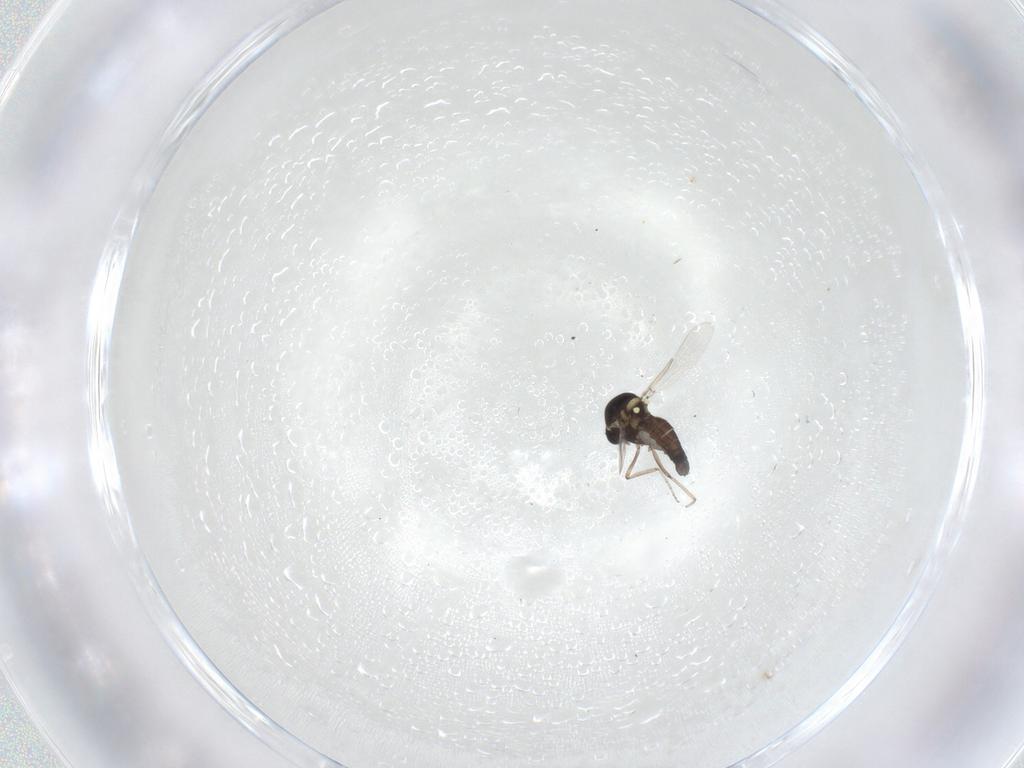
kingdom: Animalia
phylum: Arthropoda
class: Insecta
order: Diptera
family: Ceratopogonidae
